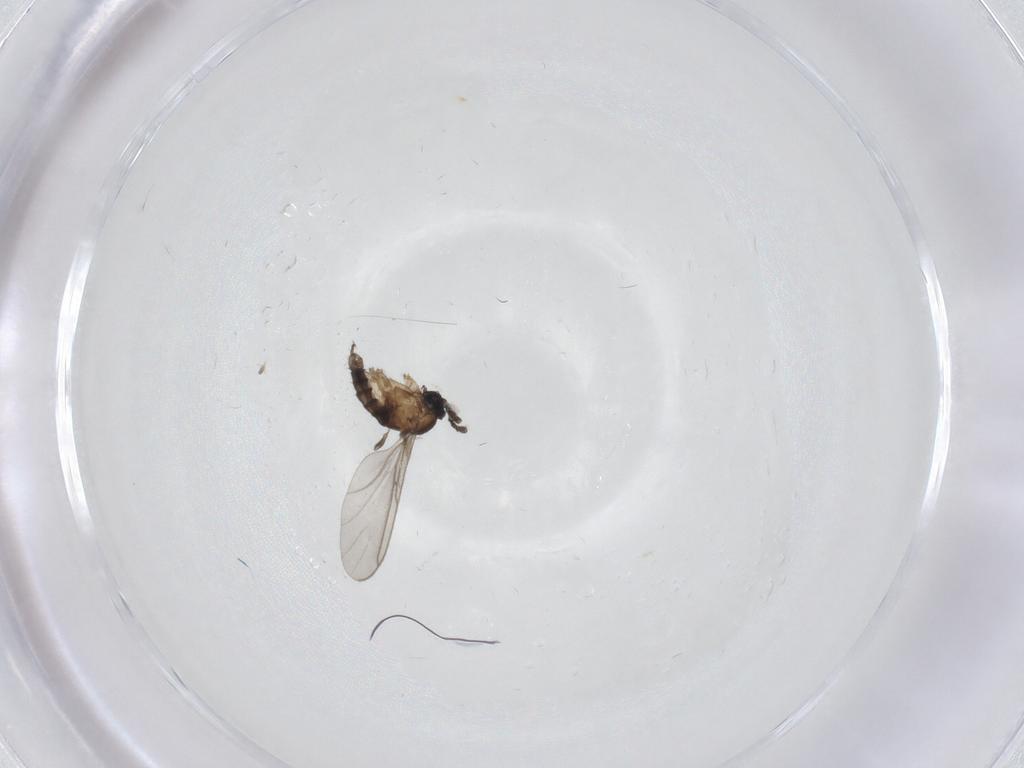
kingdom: Animalia
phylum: Arthropoda
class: Insecta
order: Diptera
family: Sciaridae
